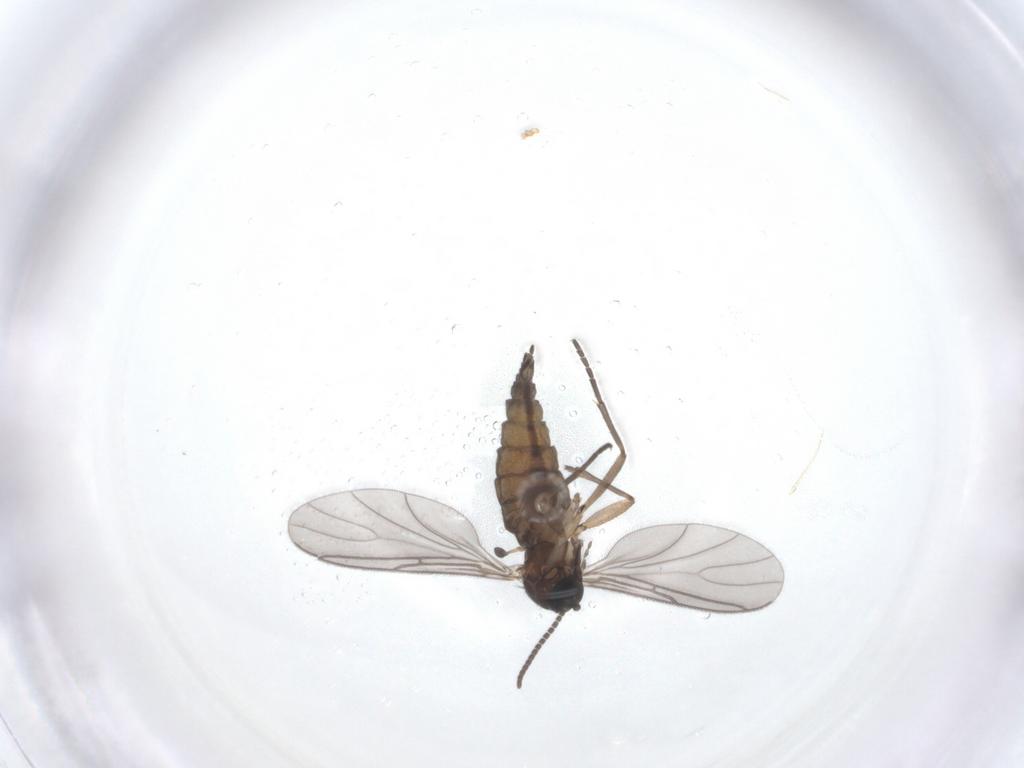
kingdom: Animalia
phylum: Arthropoda
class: Insecta
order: Diptera
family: Sciaridae
